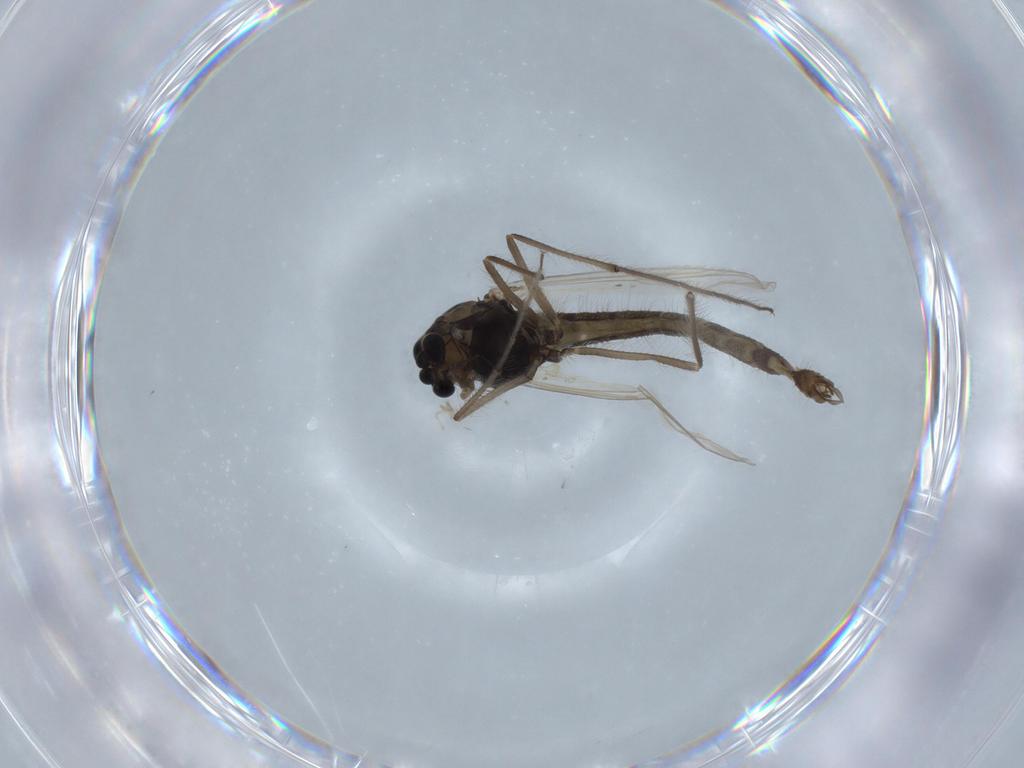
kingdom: Animalia
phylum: Arthropoda
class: Insecta
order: Diptera
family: Chironomidae
